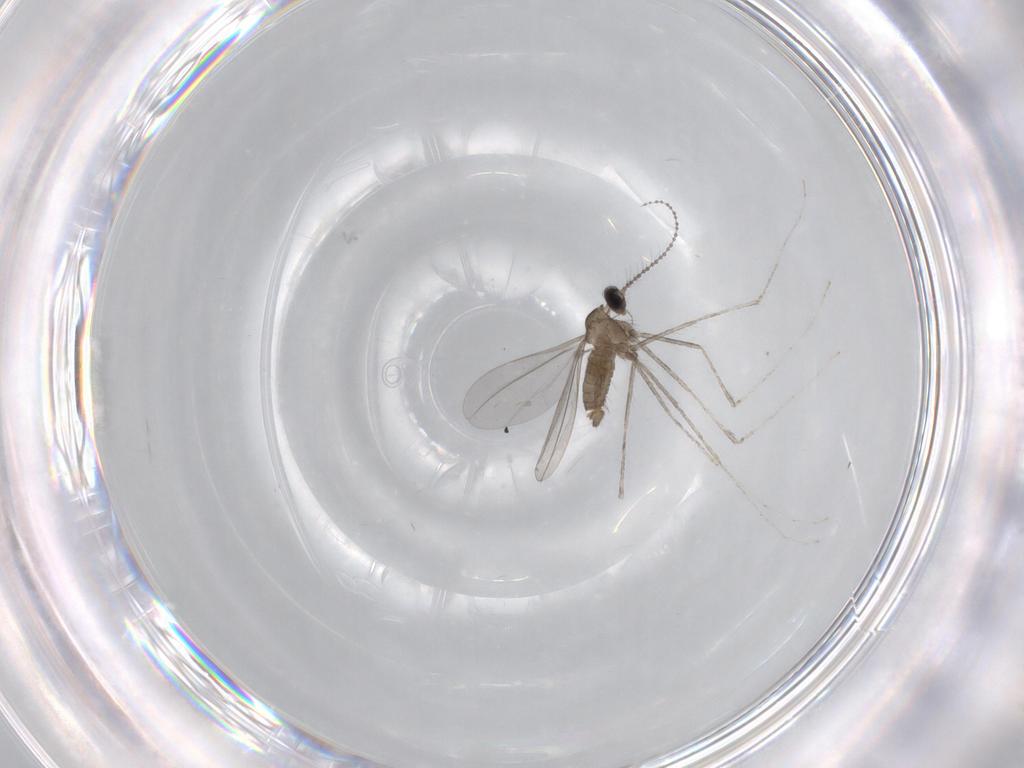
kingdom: Animalia
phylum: Arthropoda
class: Insecta
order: Diptera
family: Cecidomyiidae
